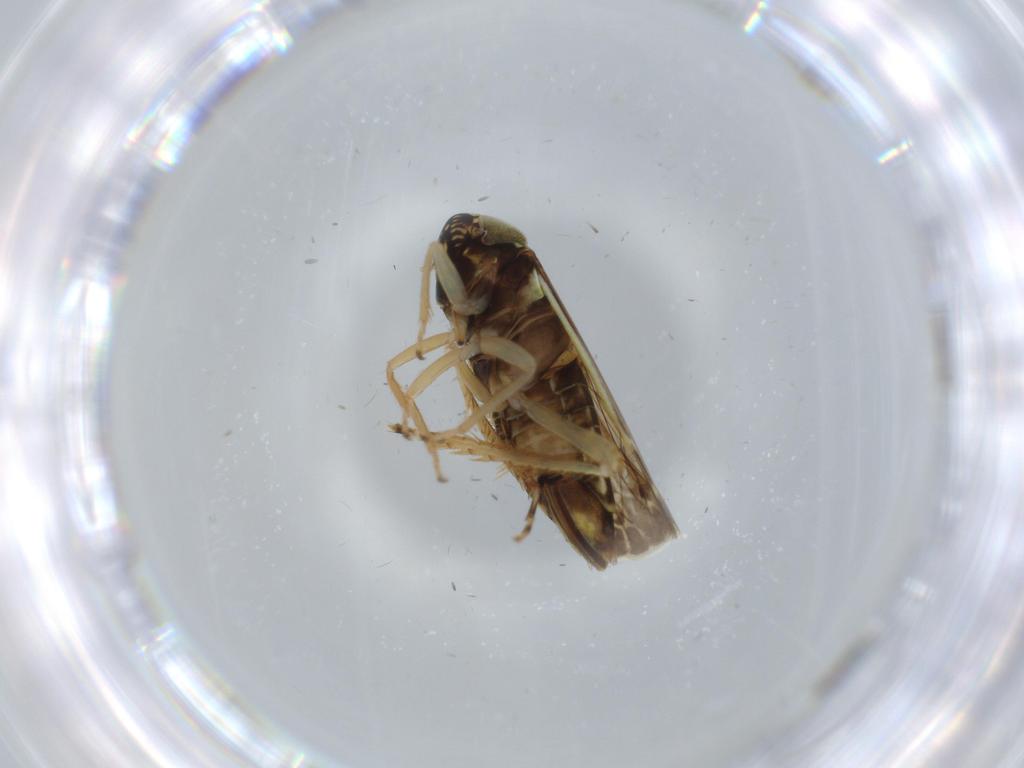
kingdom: Animalia
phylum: Arthropoda
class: Insecta
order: Hemiptera
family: Cicadellidae
